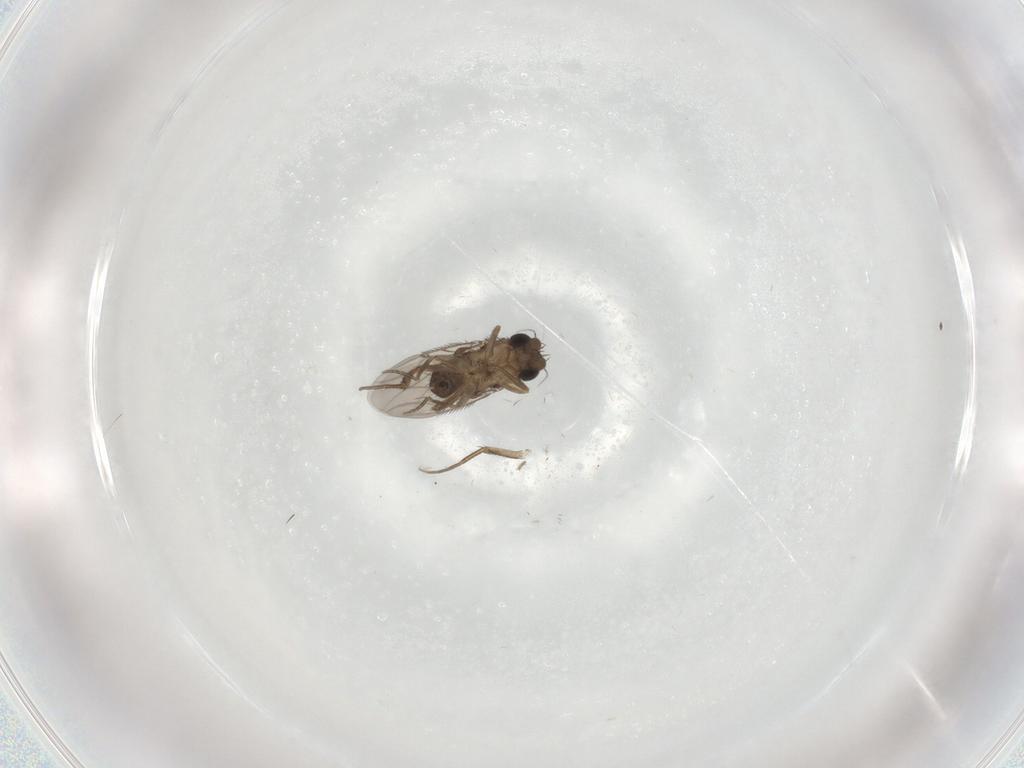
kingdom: Animalia
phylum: Arthropoda
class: Insecta
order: Diptera
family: Phoridae
